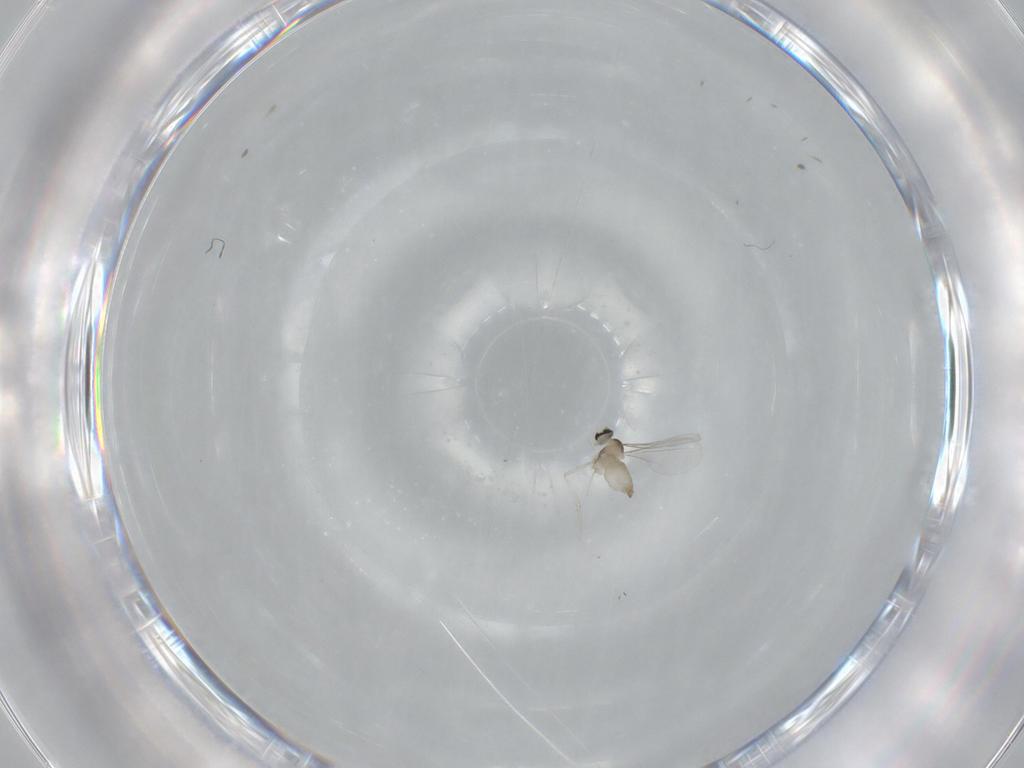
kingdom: Animalia
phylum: Arthropoda
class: Insecta
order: Diptera
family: Cecidomyiidae
